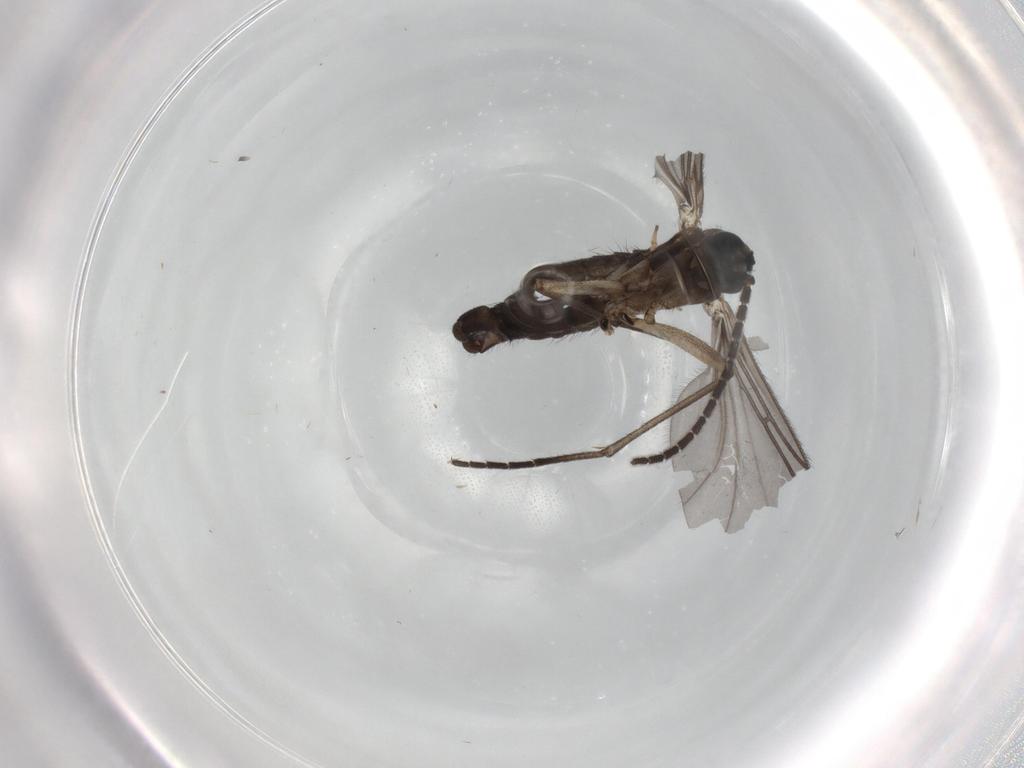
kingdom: Animalia
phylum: Arthropoda
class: Insecta
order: Diptera
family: Sciaridae
